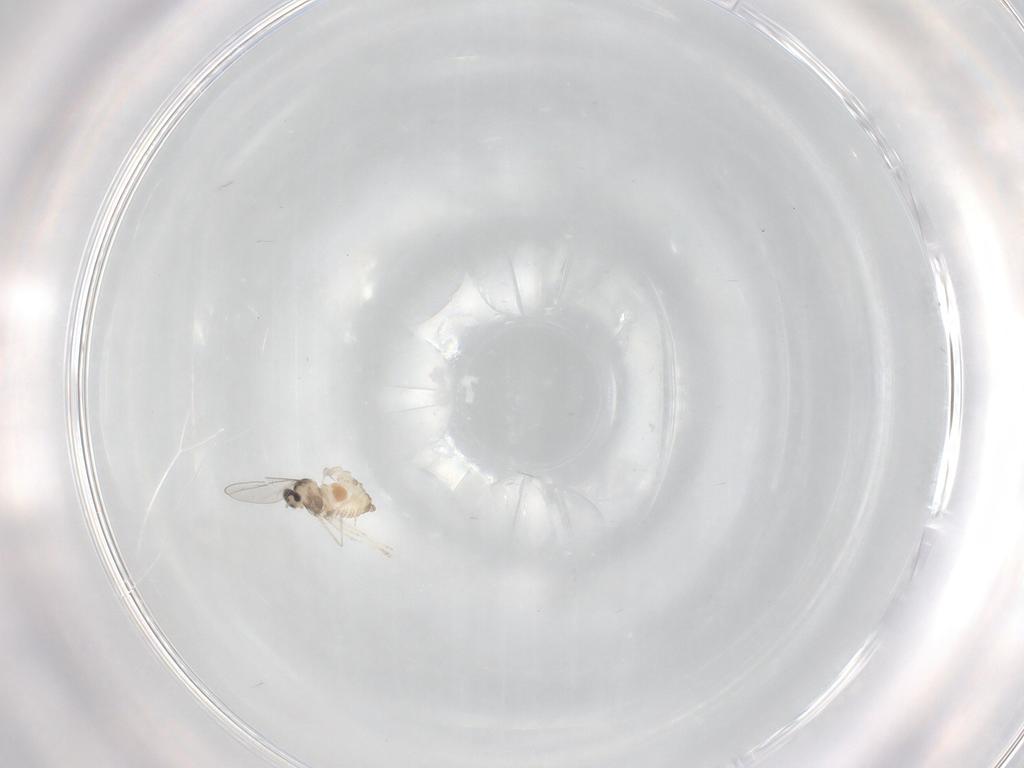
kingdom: Animalia
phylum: Arthropoda
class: Insecta
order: Diptera
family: Cecidomyiidae
